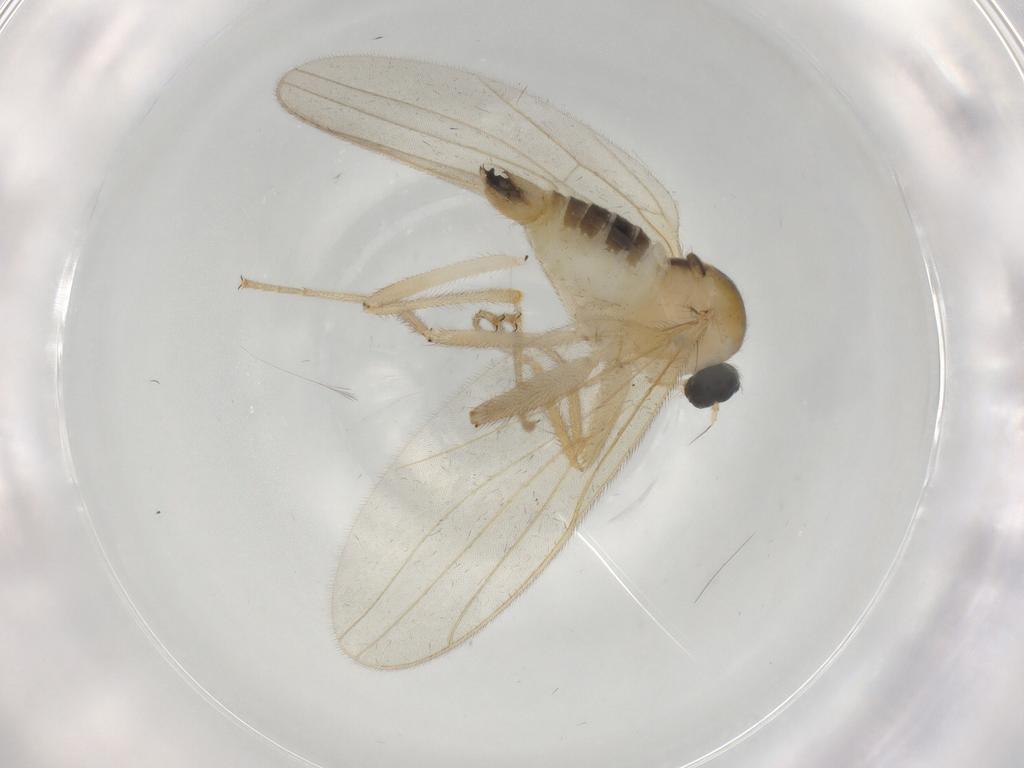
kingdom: Animalia
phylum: Arthropoda
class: Insecta
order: Diptera
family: Hybotidae
